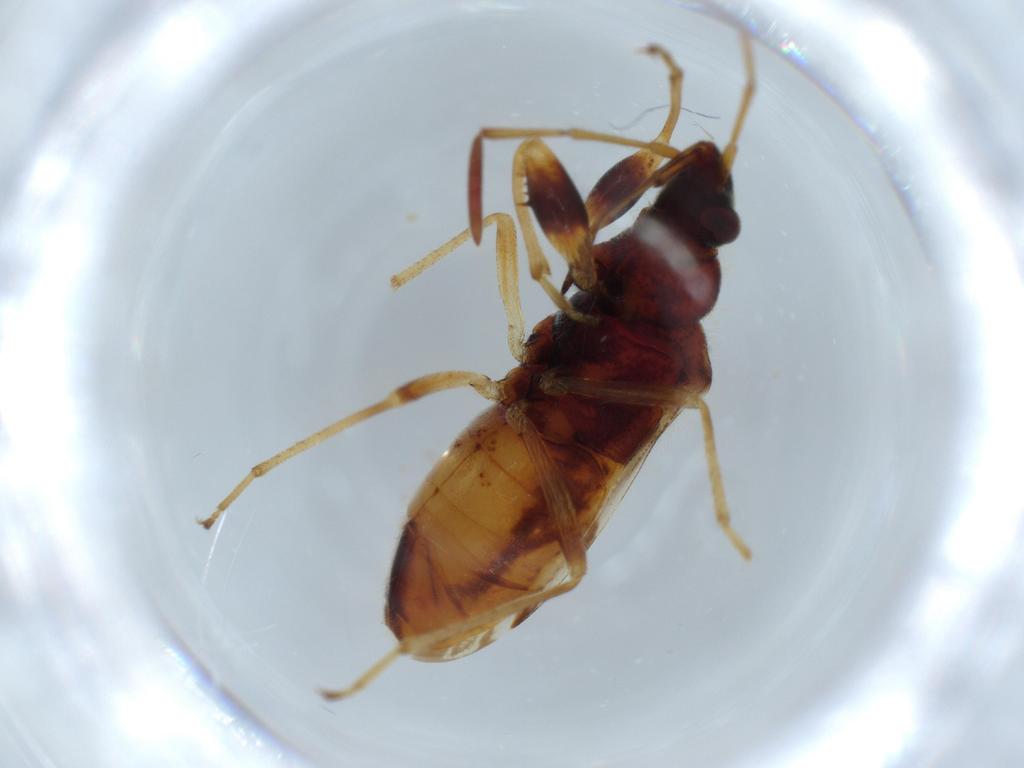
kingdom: Animalia
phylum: Arthropoda
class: Insecta
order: Hemiptera
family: Rhyparochromidae
